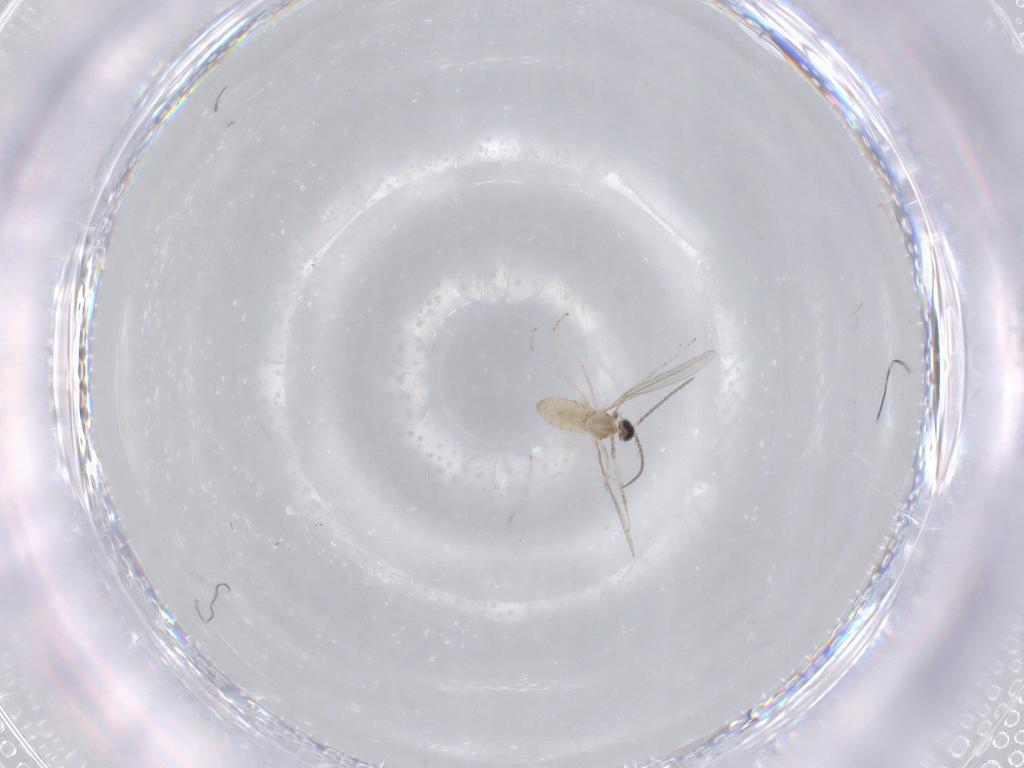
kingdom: Animalia
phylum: Arthropoda
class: Insecta
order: Diptera
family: Cecidomyiidae
